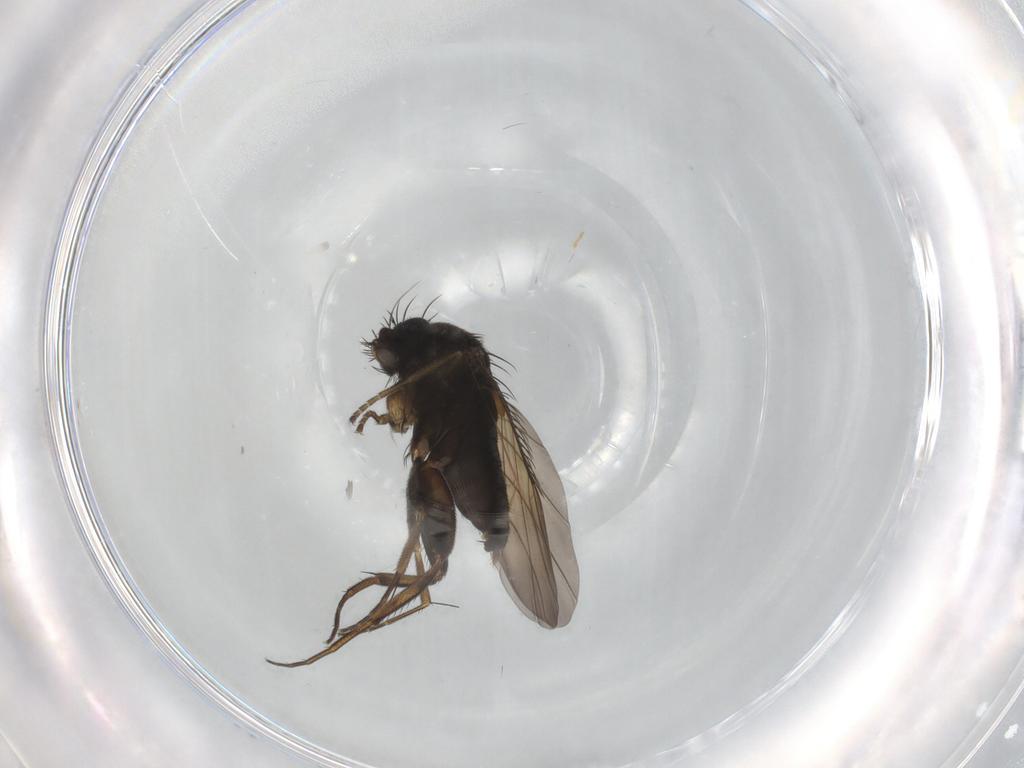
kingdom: Animalia
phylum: Arthropoda
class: Insecta
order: Diptera
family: Phoridae
